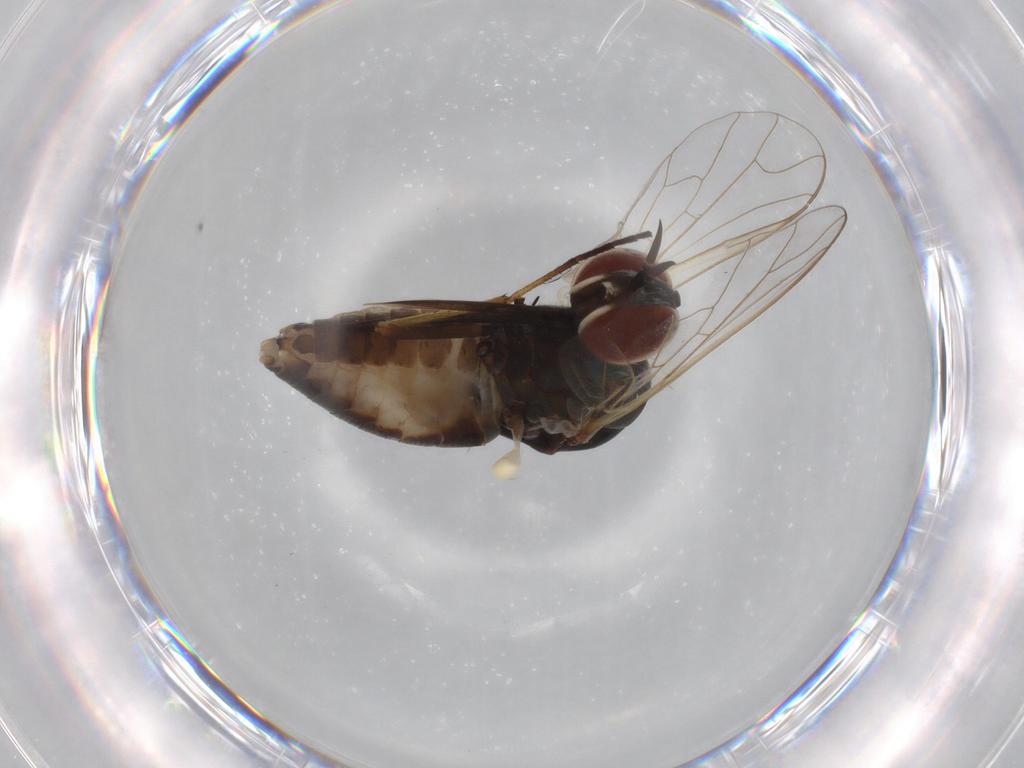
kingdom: Animalia
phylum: Arthropoda
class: Insecta
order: Diptera
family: Bombyliidae
